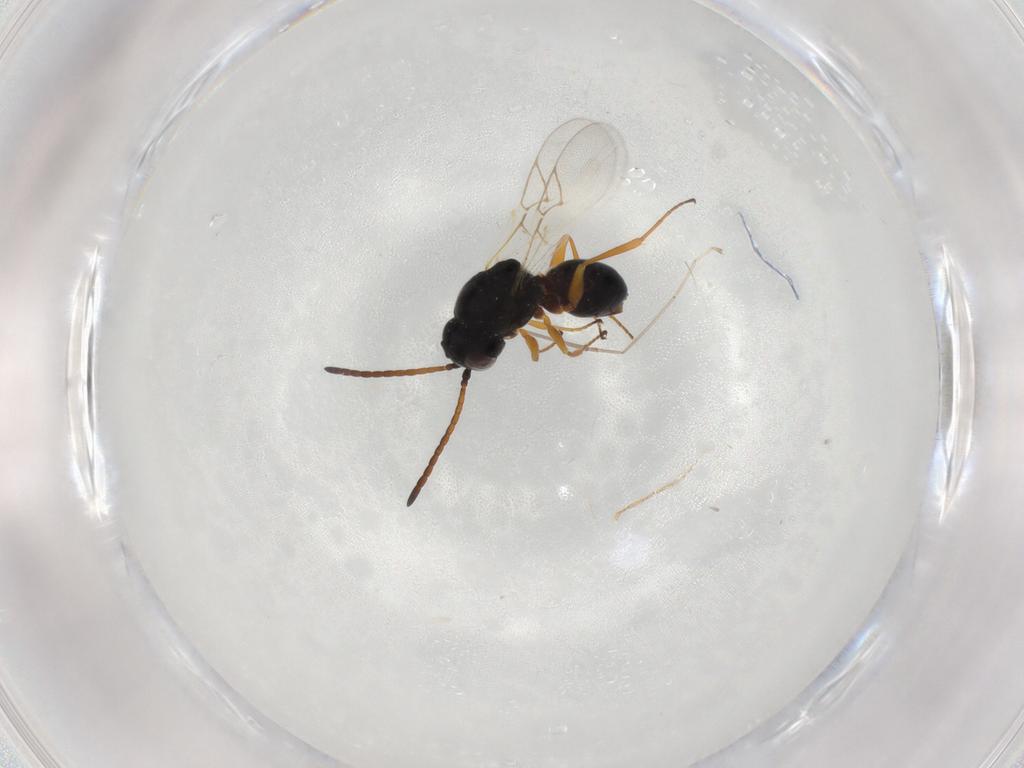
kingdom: Animalia
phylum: Arthropoda
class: Insecta
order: Hymenoptera
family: Figitidae
